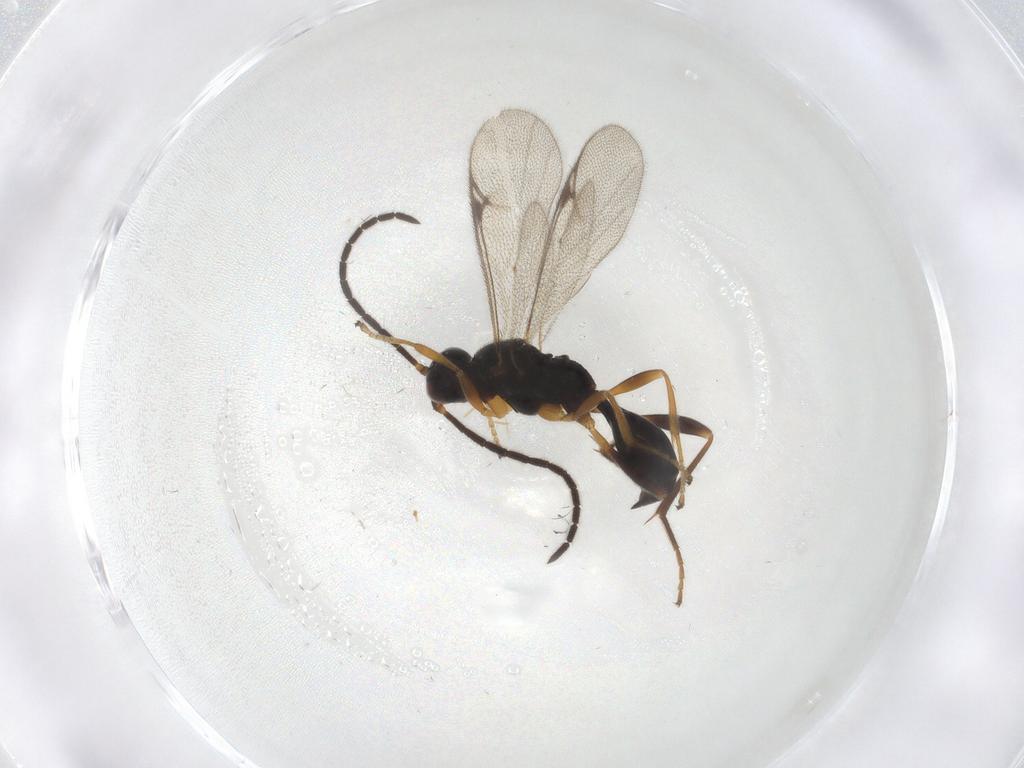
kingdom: Animalia
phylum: Arthropoda
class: Insecta
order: Hymenoptera
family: Proctotrupidae
